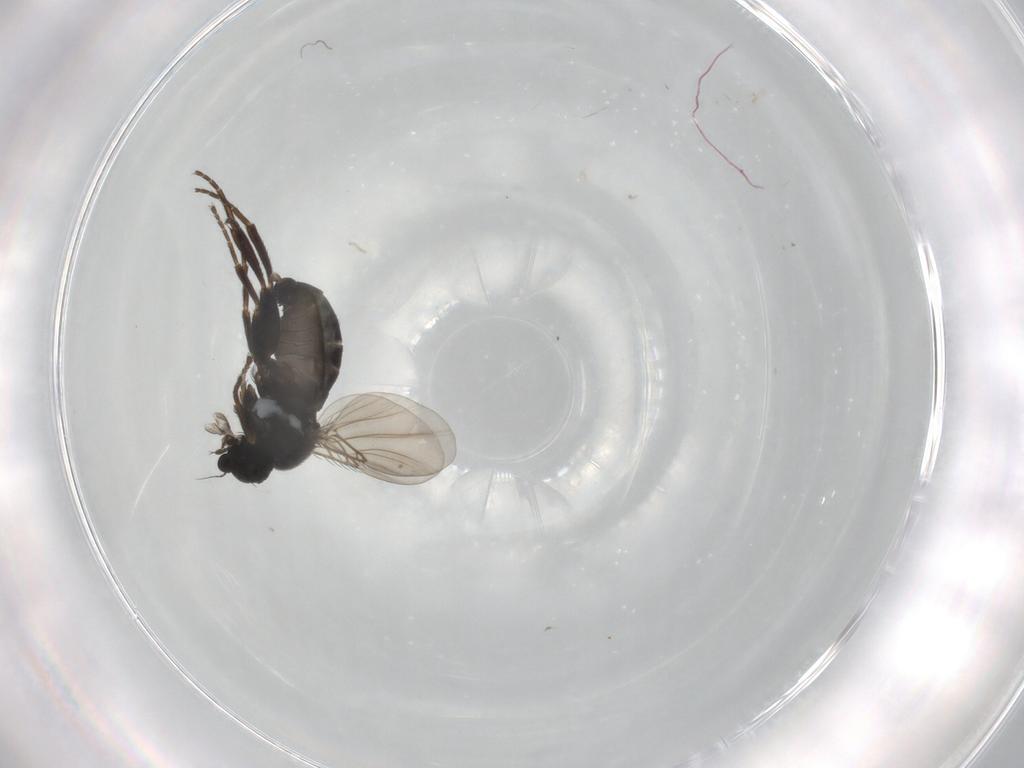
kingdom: Animalia
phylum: Arthropoda
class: Insecta
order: Diptera
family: Phoridae
